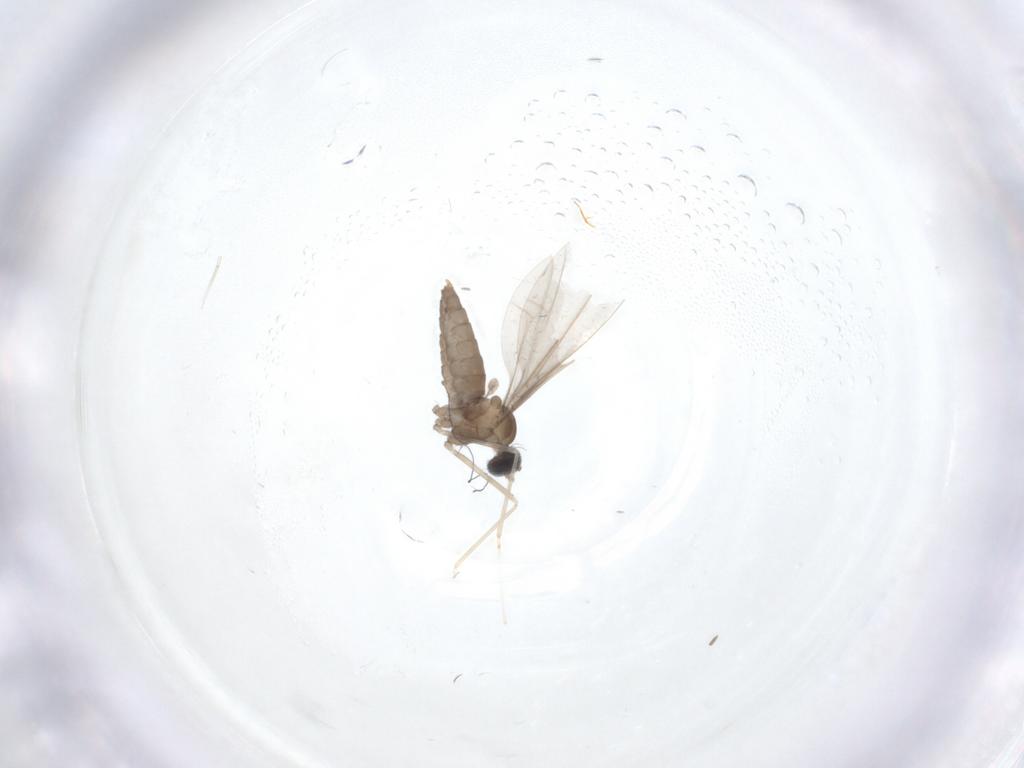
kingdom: Animalia
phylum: Arthropoda
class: Insecta
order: Diptera
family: Cecidomyiidae
